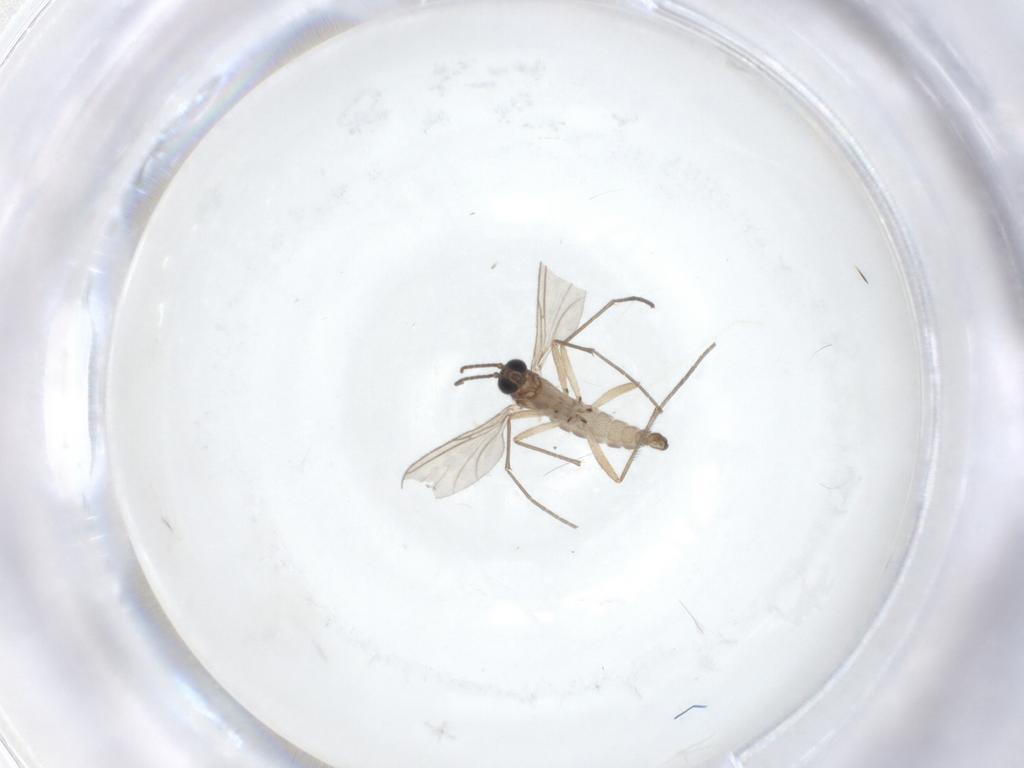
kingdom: Animalia
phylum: Arthropoda
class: Insecta
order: Diptera
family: Sciaridae
